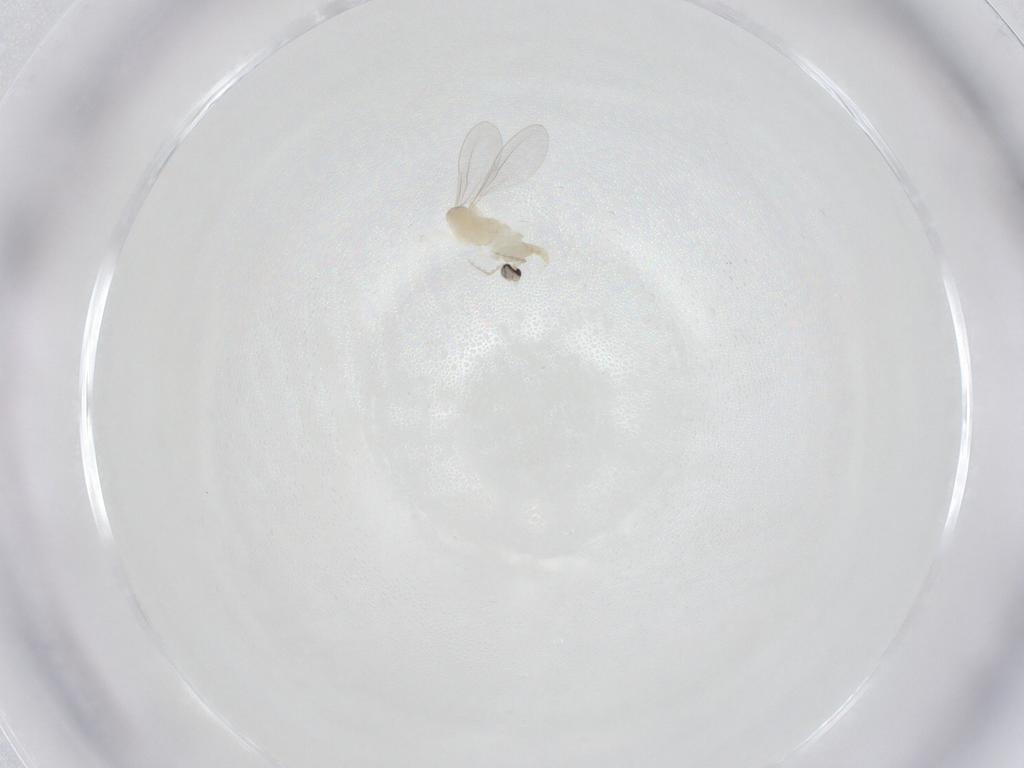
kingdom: Animalia
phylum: Arthropoda
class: Insecta
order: Diptera
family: Cecidomyiidae
